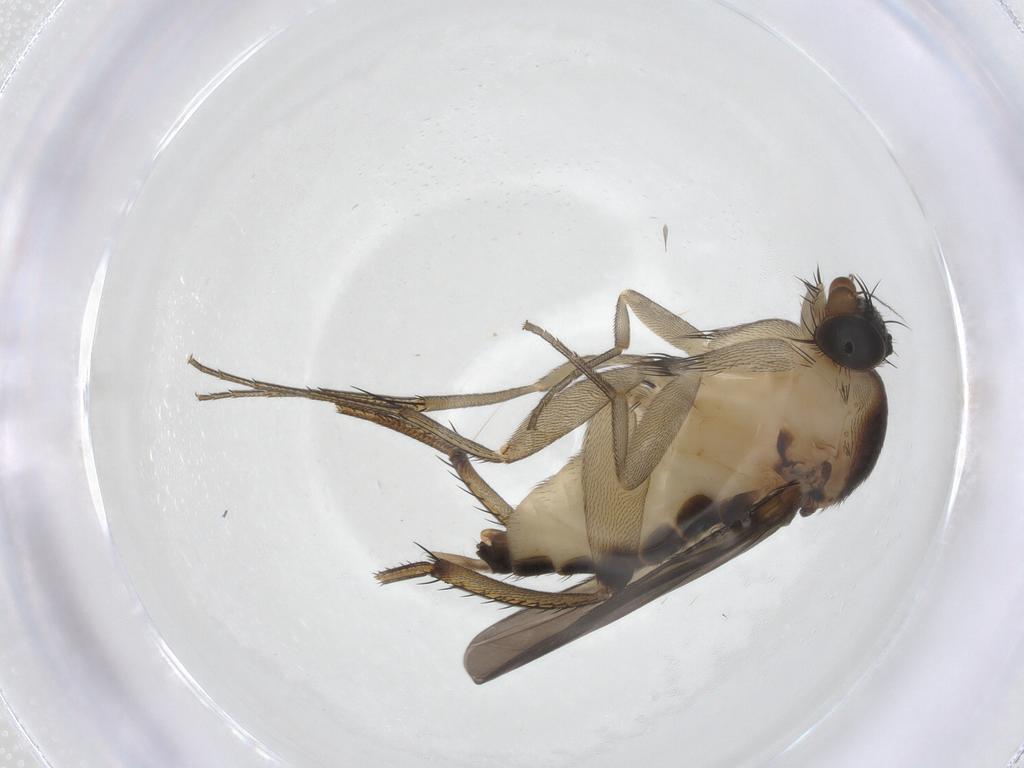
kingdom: Animalia
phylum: Arthropoda
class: Insecta
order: Diptera
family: Phoridae
